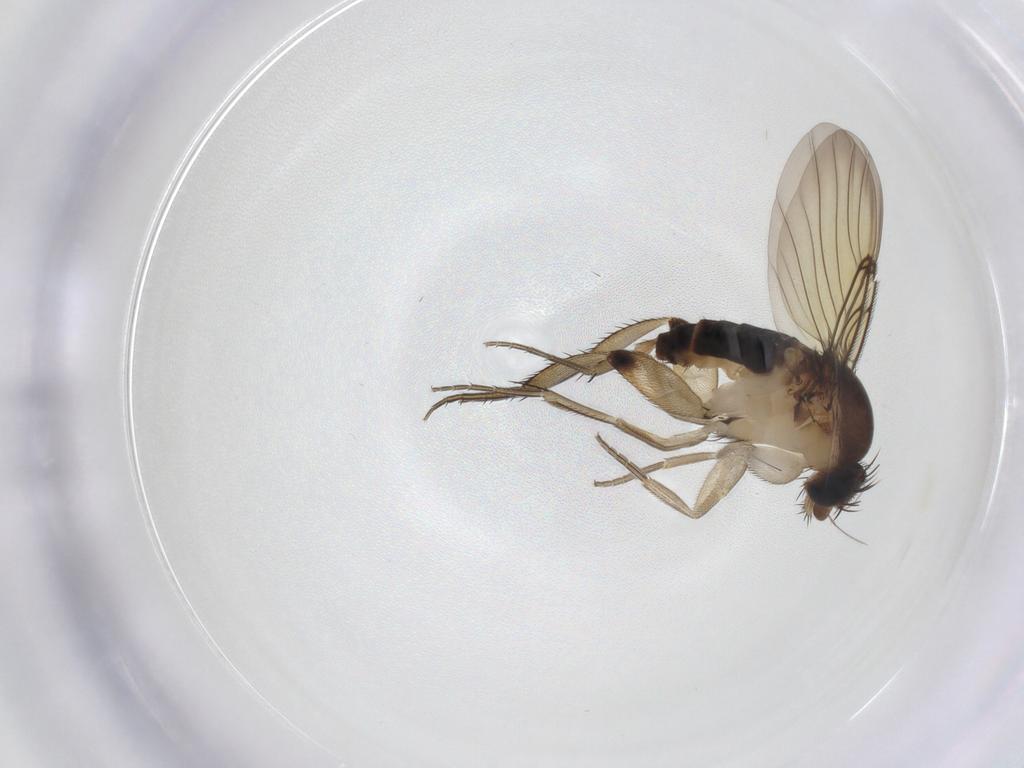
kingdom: Animalia
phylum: Arthropoda
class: Insecta
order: Diptera
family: Phoridae
